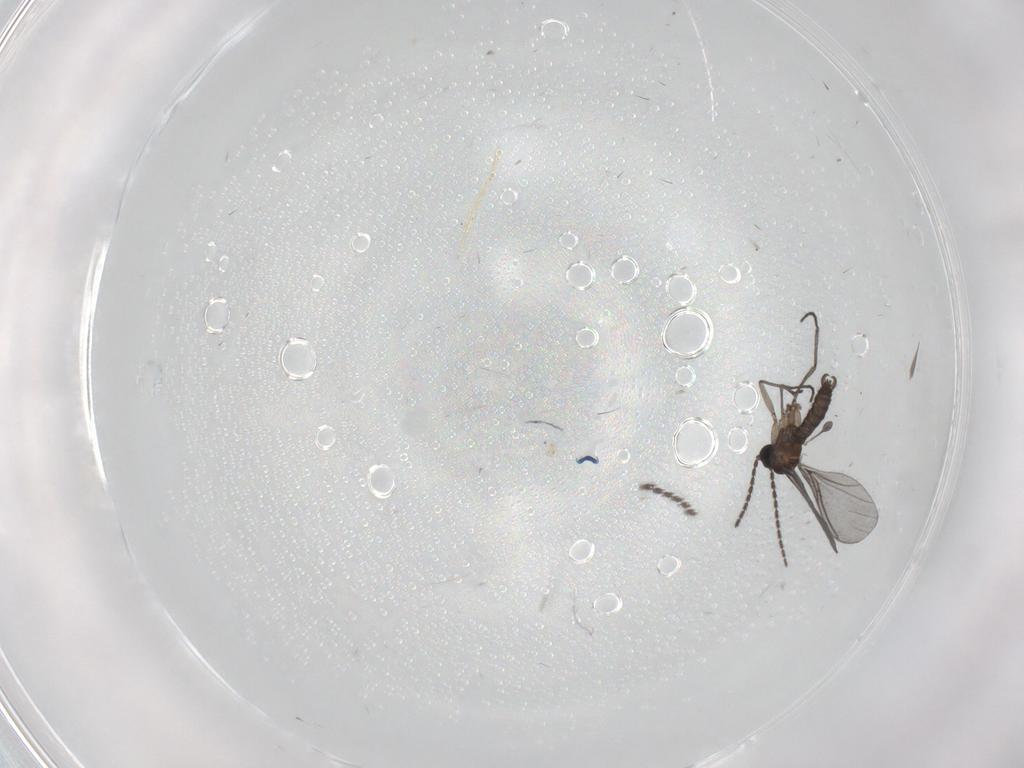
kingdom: Animalia
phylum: Arthropoda
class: Insecta
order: Diptera
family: Sciaridae
